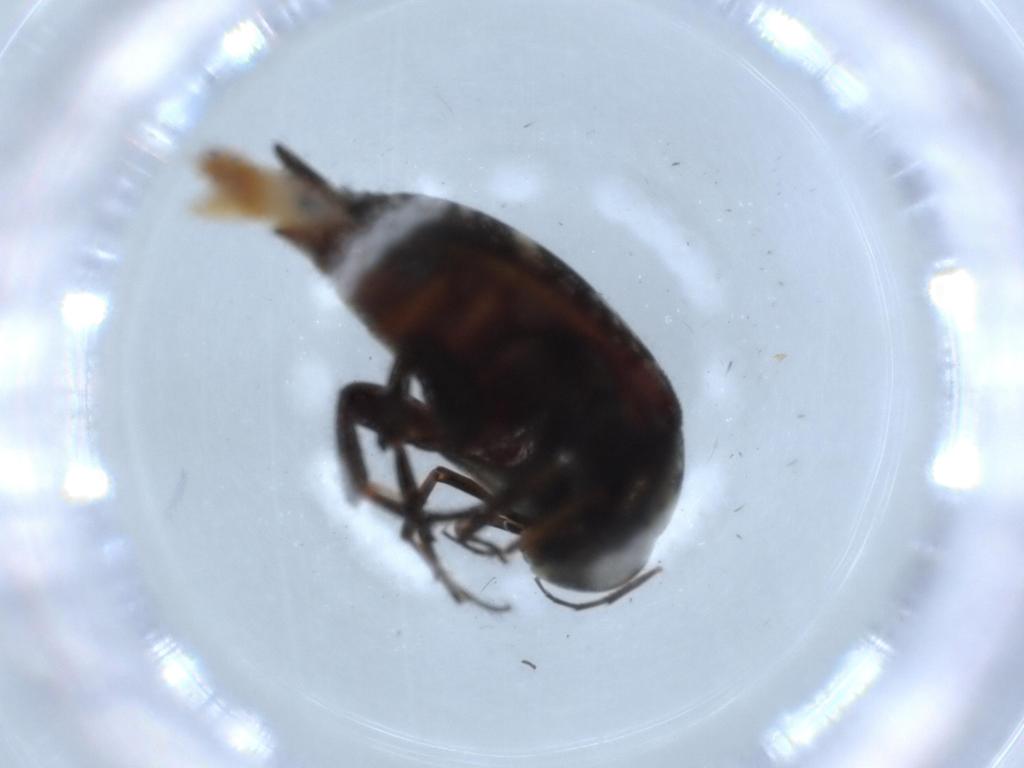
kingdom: Animalia
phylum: Arthropoda
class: Insecta
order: Coleoptera
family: Scraptiidae
